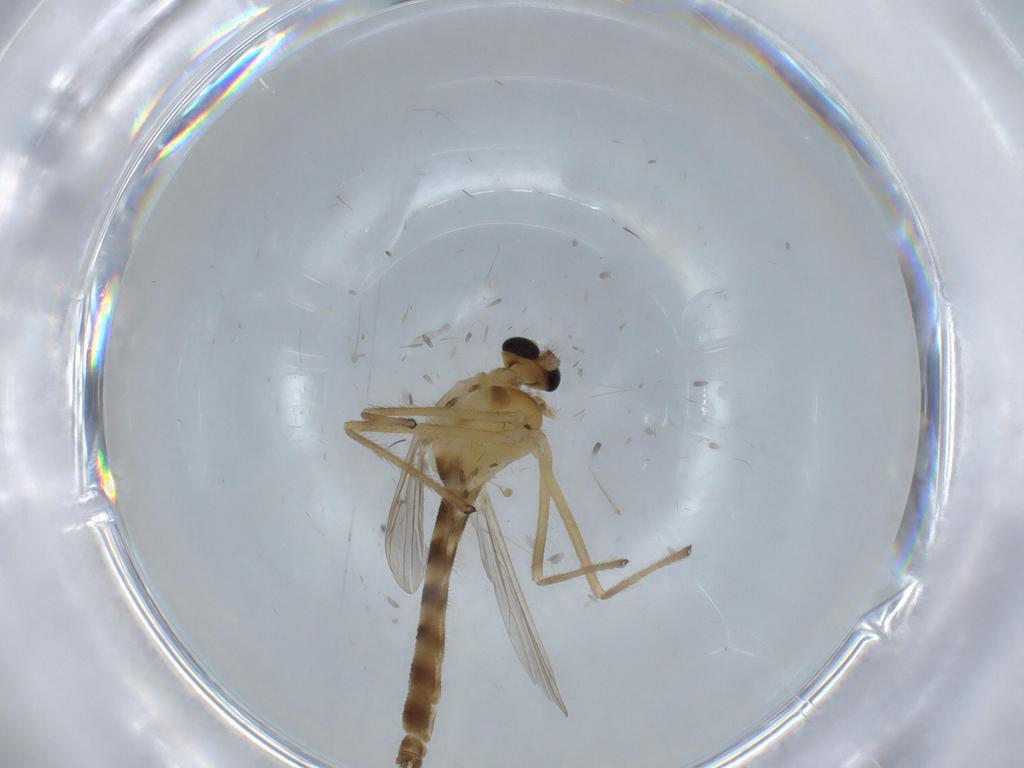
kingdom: Animalia
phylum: Arthropoda
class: Insecta
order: Diptera
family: Chironomidae
